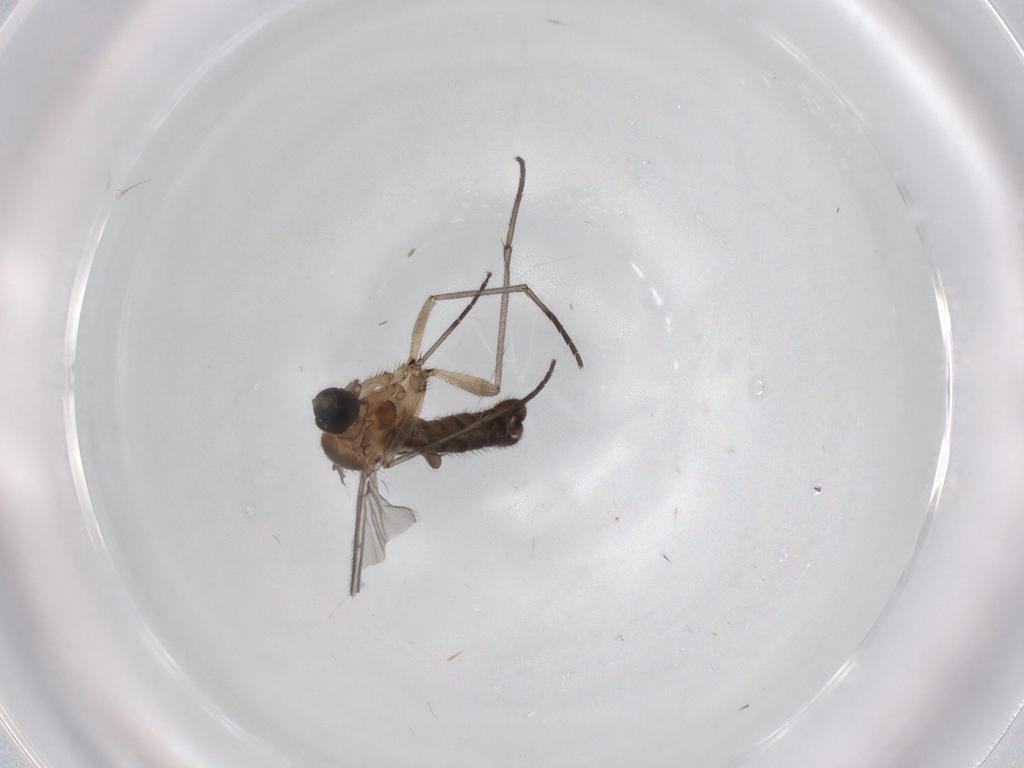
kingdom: Animalia
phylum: Arthropoda
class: Insecta
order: Diptera
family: Sciaridae
